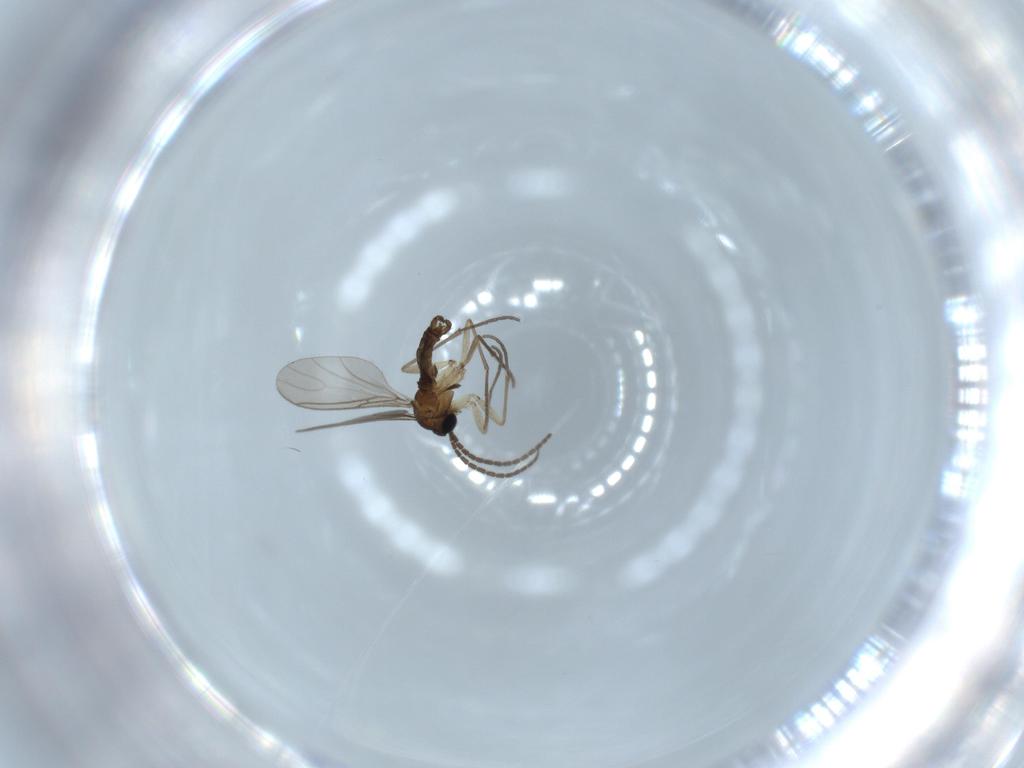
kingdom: Animalia
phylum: Arthropoda
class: Insecta
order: Diptera
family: Sciaridae
